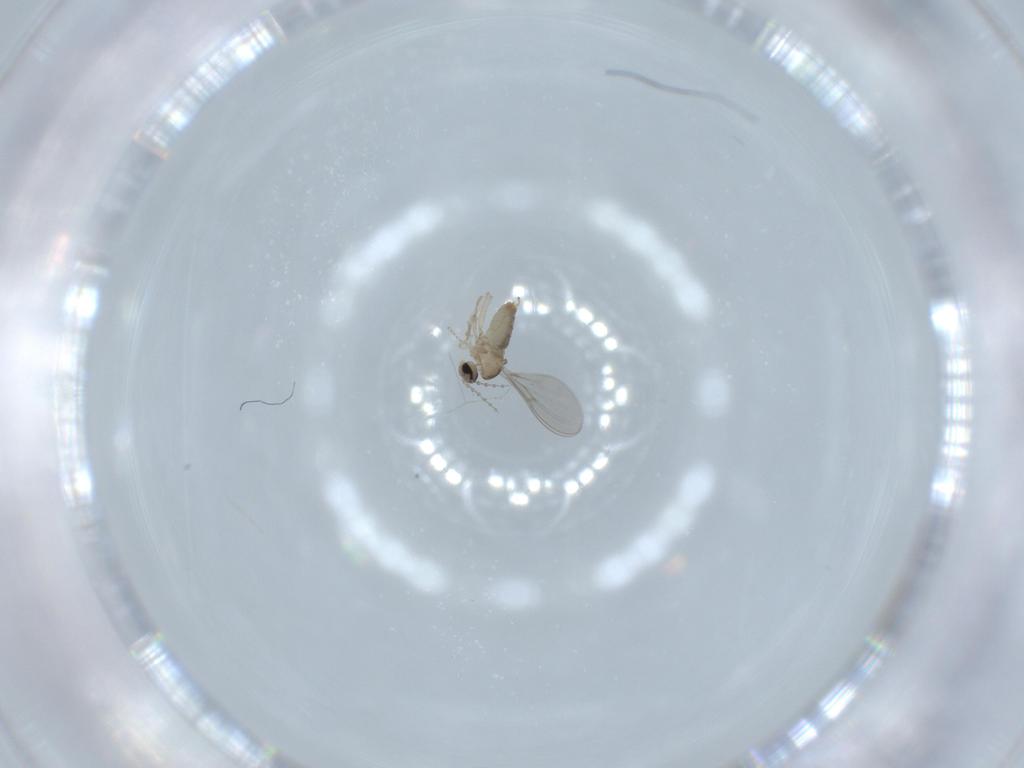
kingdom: Animalia
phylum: Arthropoda
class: Insecta
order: Diptera
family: Cecidomyiidae
